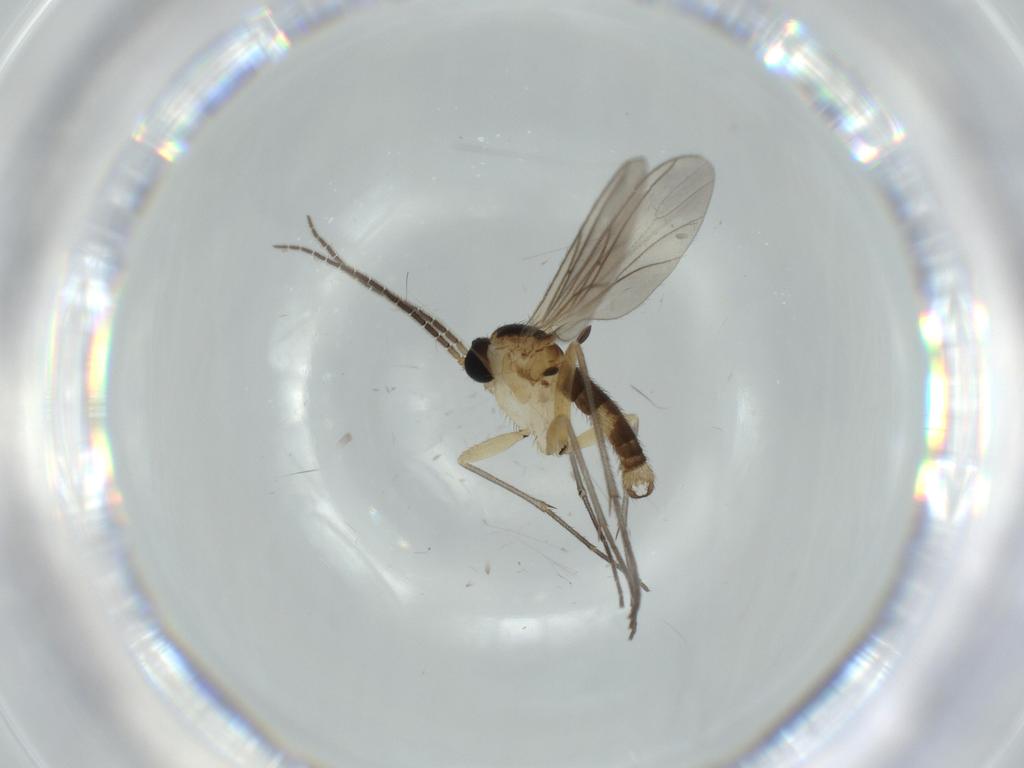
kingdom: Animalia
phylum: Arthropoda
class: Insecta
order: Diptera
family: Sciaridae
